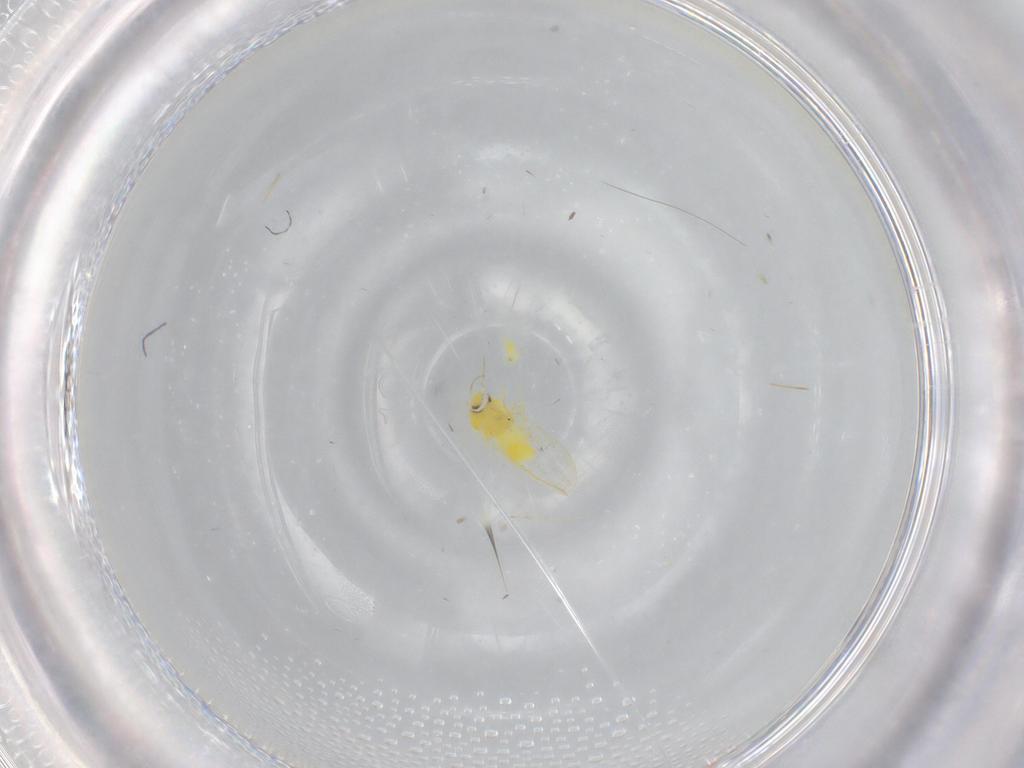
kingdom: Animalia
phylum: Arthropoda
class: Insecta
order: Hemiptera
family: Aleyrodidae
